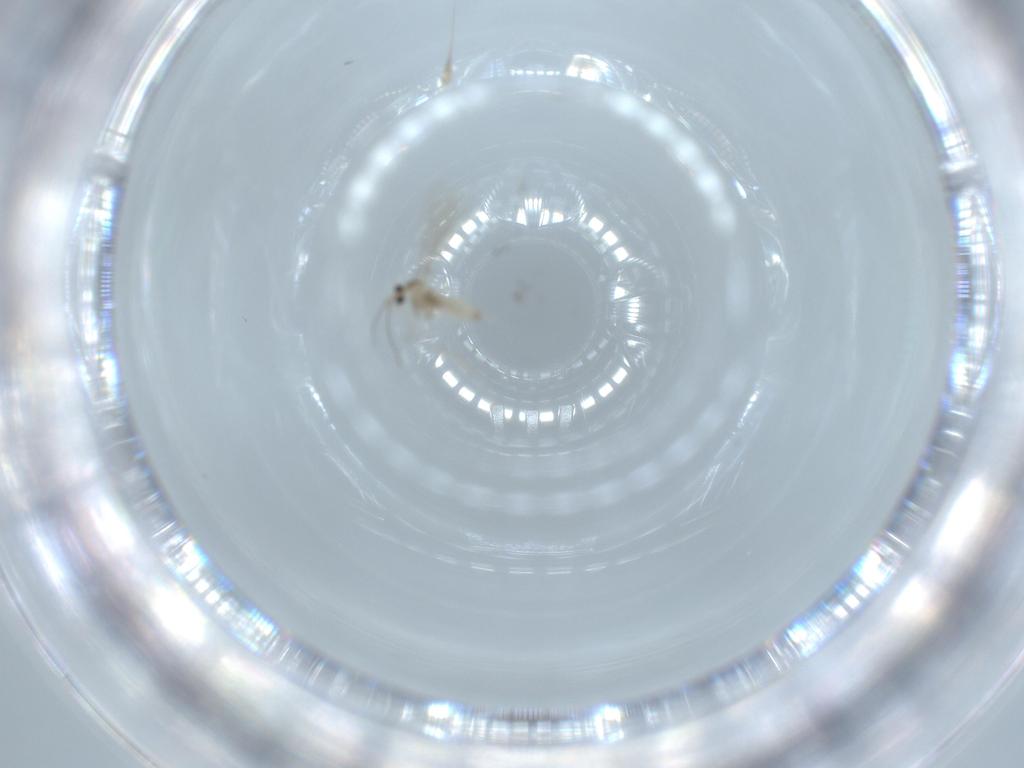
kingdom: Animalia
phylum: Arthropoda
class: Insecta
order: Diptera
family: Cecidomyiidae
